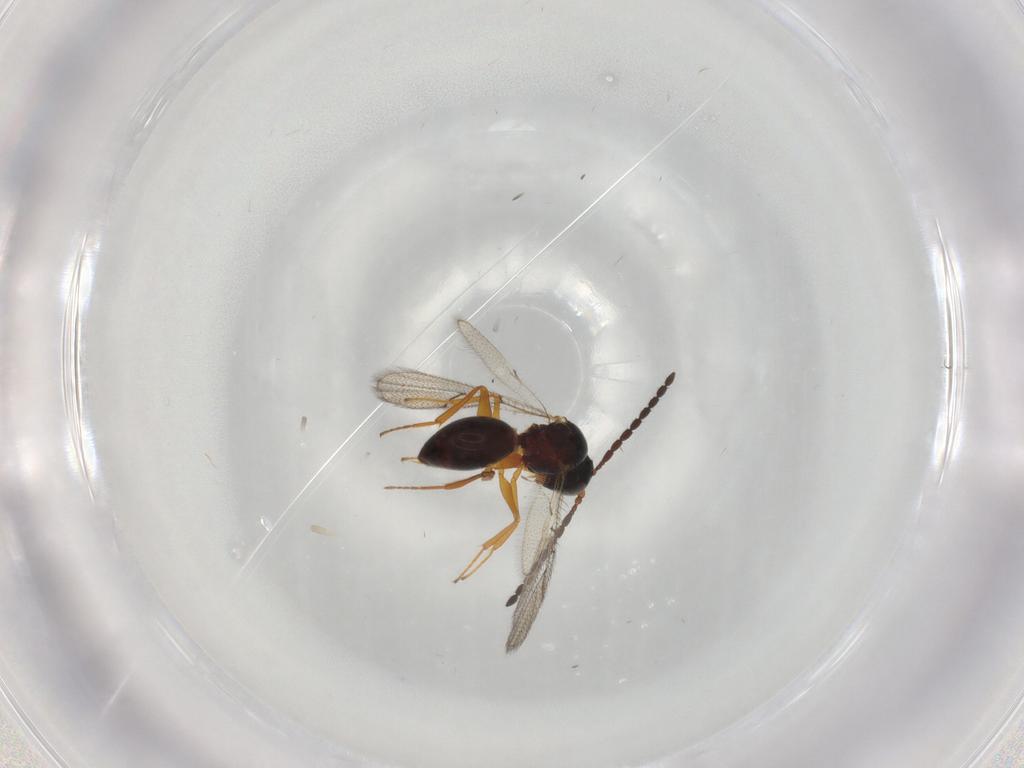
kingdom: Animalia
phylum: Arthropoda
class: Insecta
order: Hymenoptera
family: Figitidae
